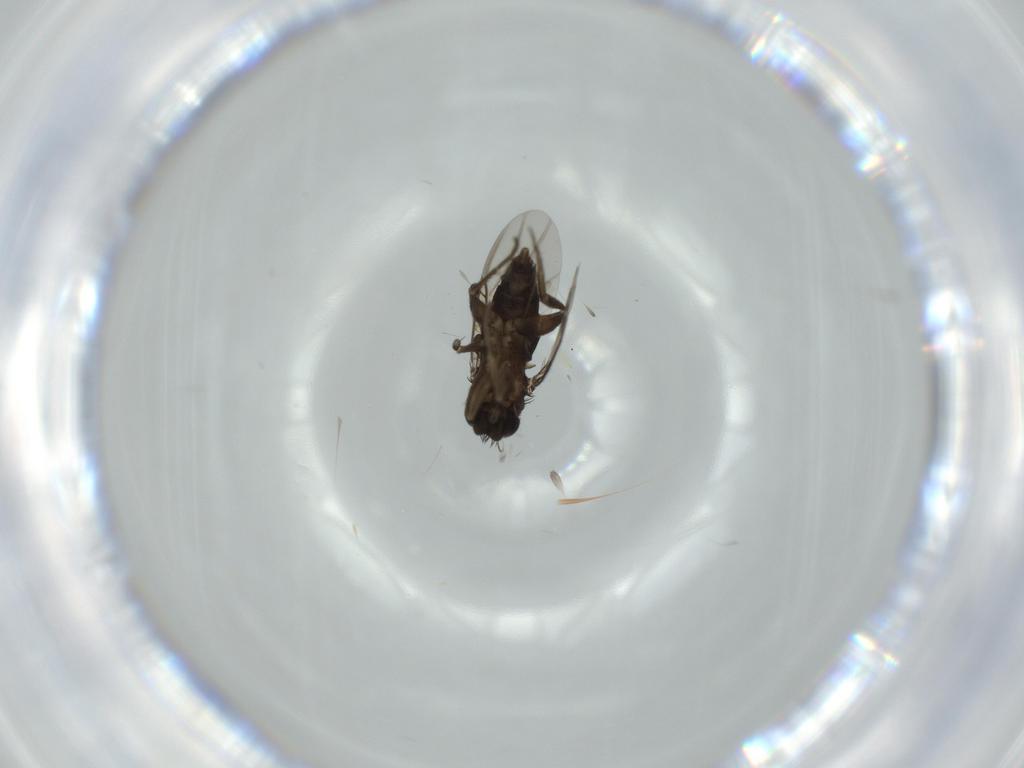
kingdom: Animalia
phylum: Arthropoda
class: Insecta
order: Diptera
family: Phoridae
